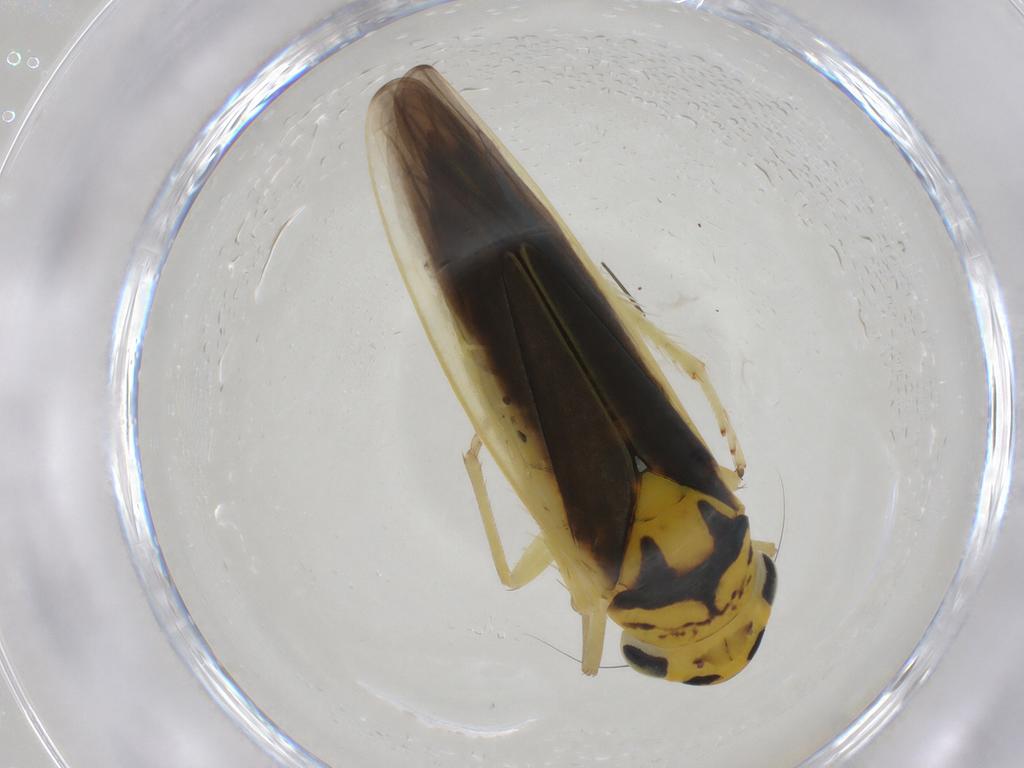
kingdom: Animalia
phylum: Arthropoda
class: Insecta
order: Hemiptera
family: Cicadellidae
